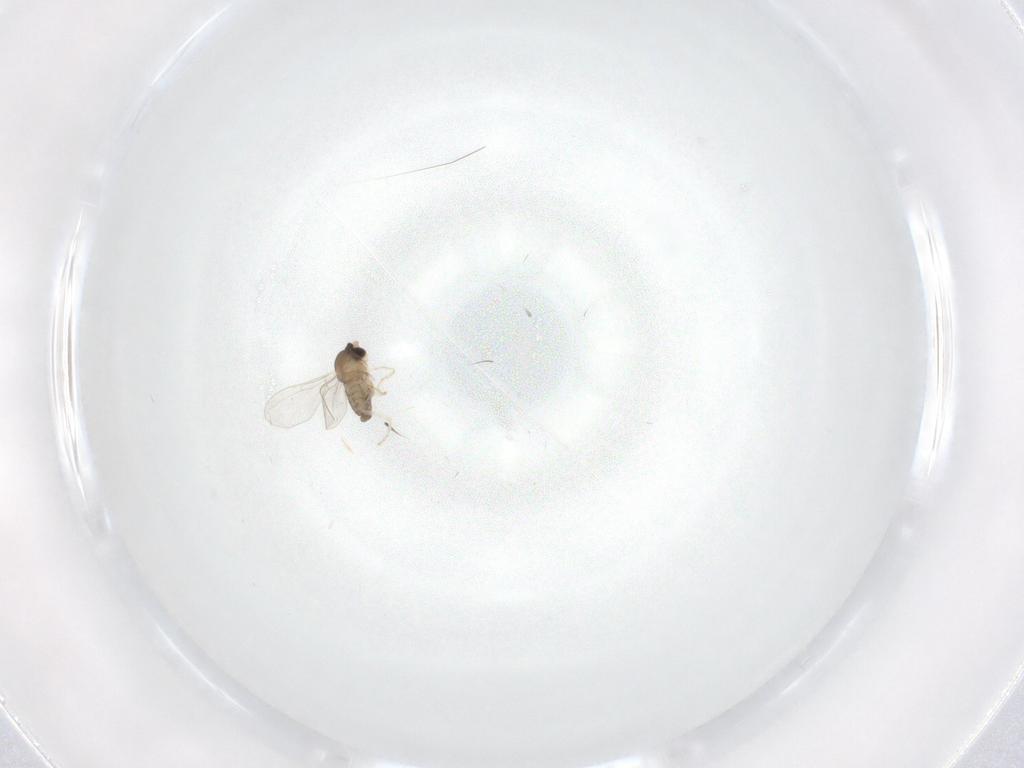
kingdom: Animalia
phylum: Arthropoda
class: Insecta
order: Diptera
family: Cecidomyiidae
